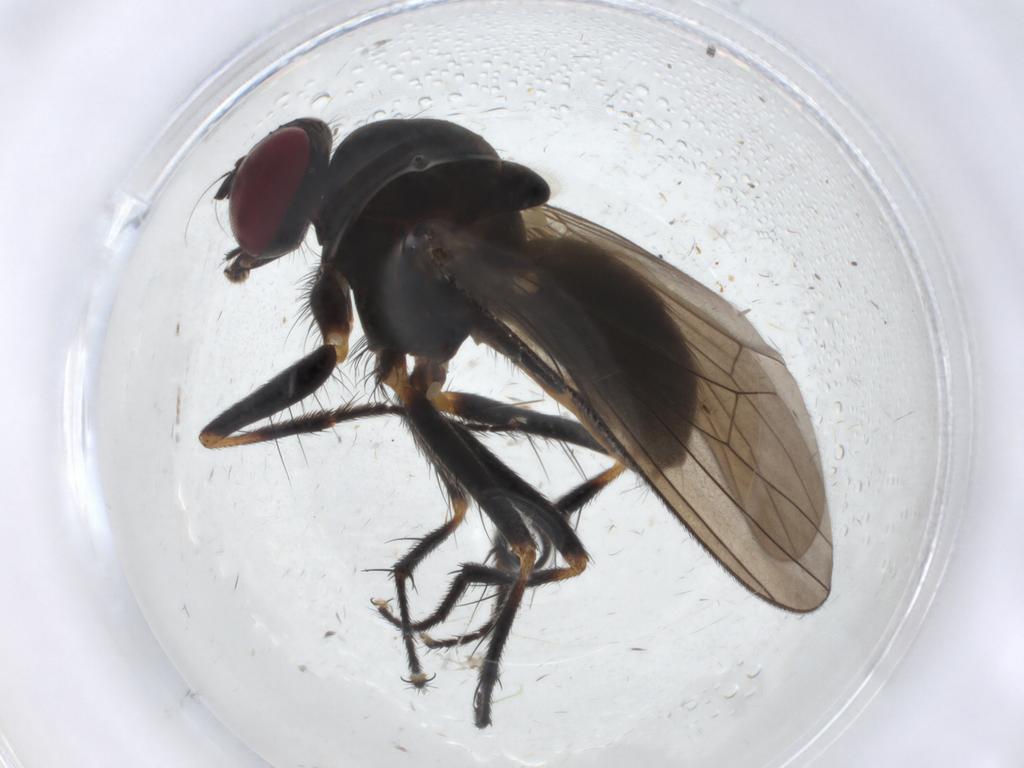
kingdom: Animalia
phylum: Arthropoda
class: Insecta
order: Diptera
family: Anthomyiidae
